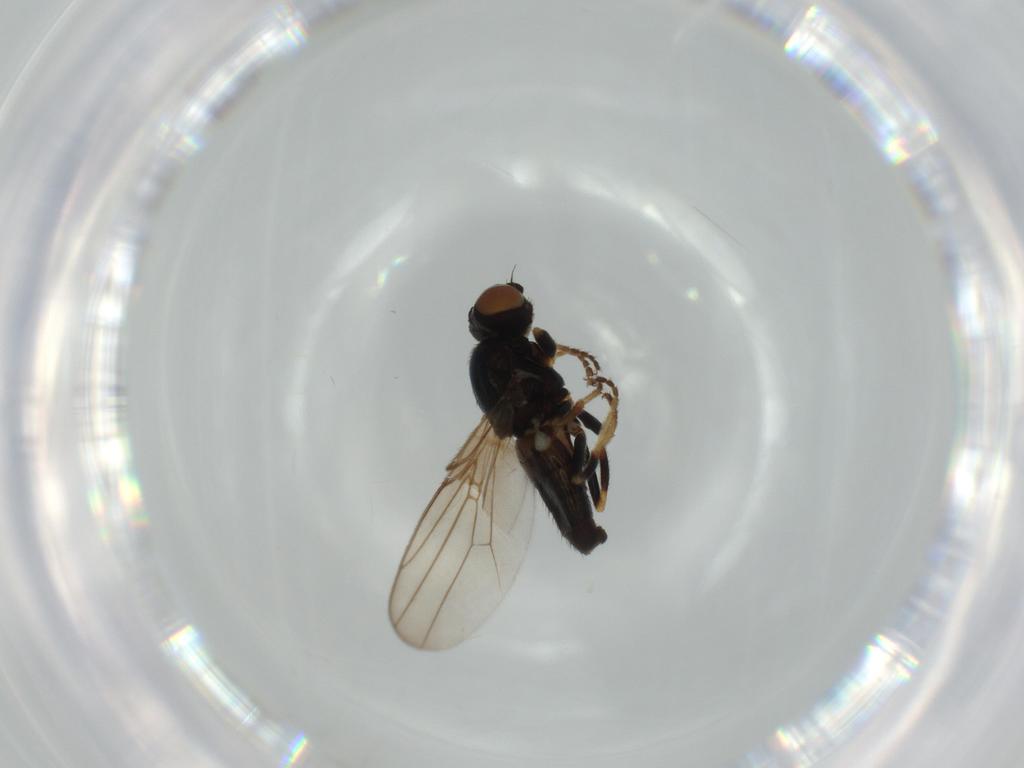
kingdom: Animalia
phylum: Arthropoda
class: Insecta
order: Diptera
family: Chloropidae
